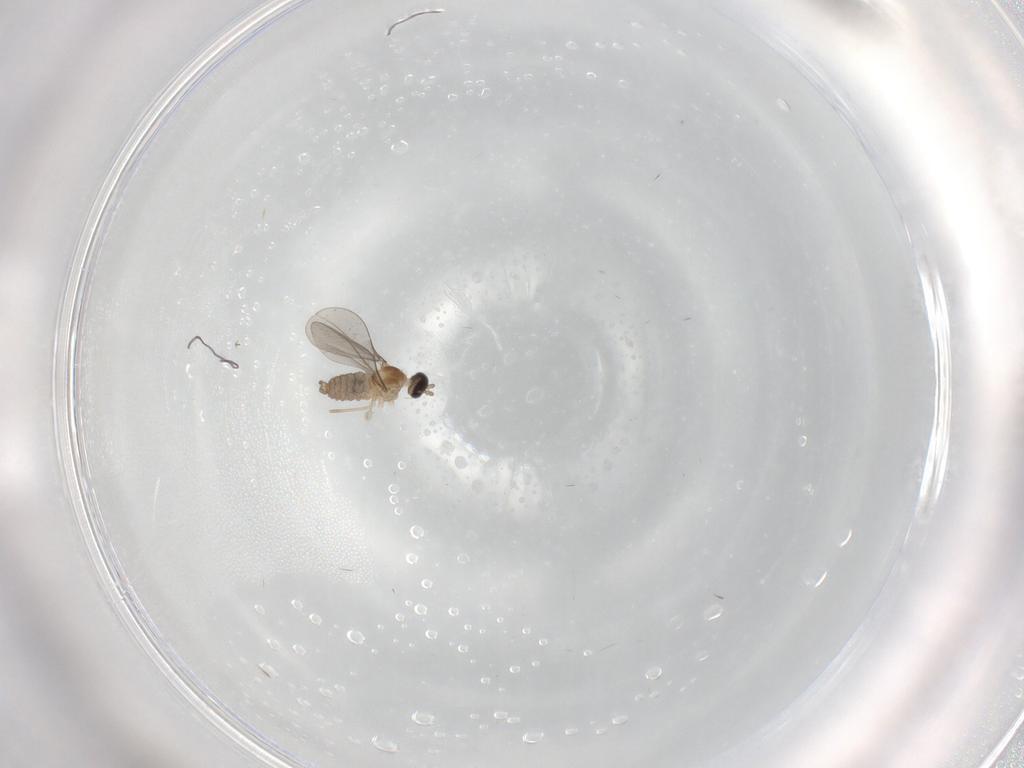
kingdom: Animalia
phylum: Arthropoda
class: Insecta
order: Diptera
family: Cecidomyiidae
